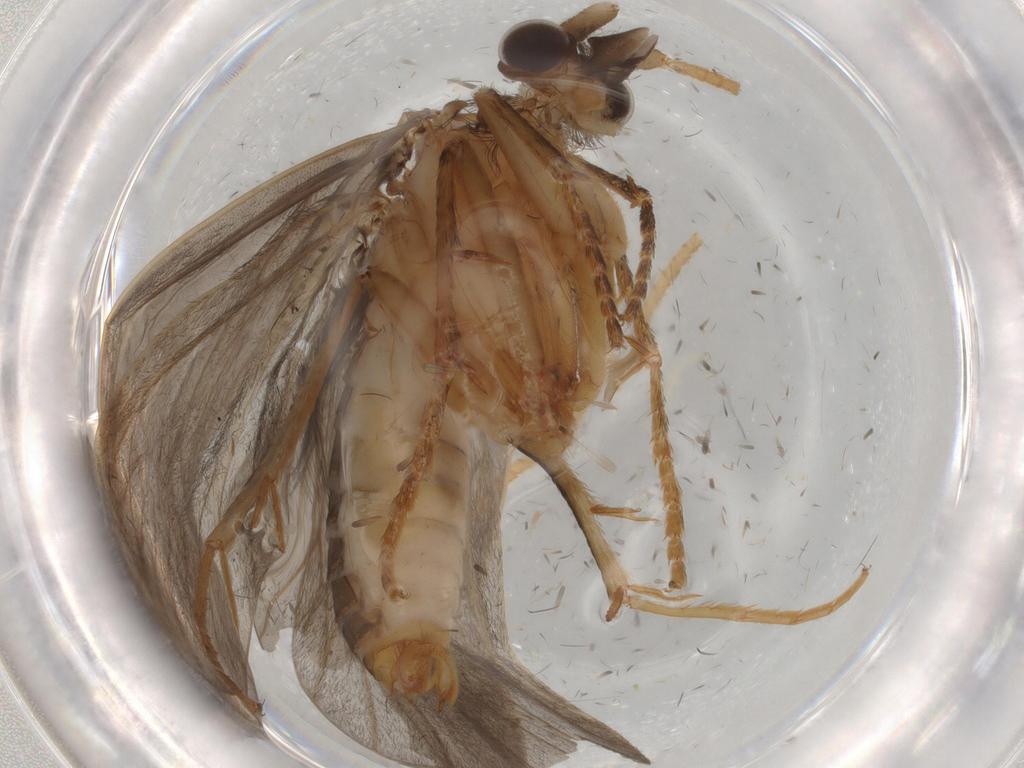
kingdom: Animalia
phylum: Arthropoda
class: Insecta
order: Trichoptera
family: Lepidostomatidae
